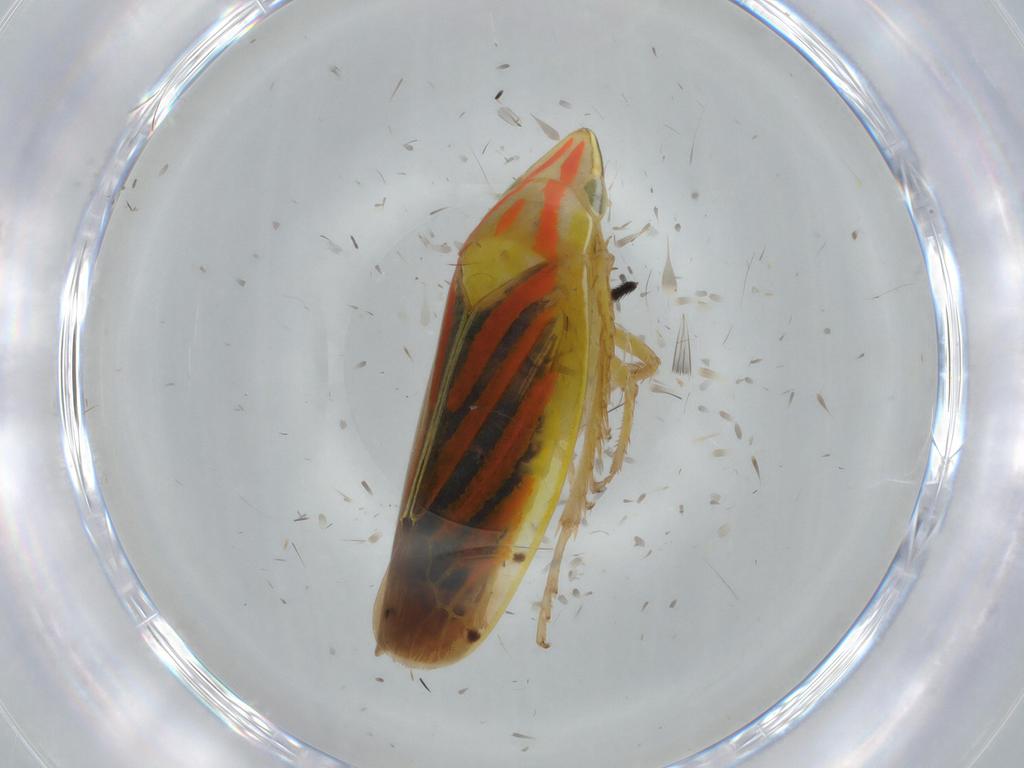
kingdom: Animalia
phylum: Arthropoda
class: Insecta
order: Hemiptera
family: Cicadellidae
